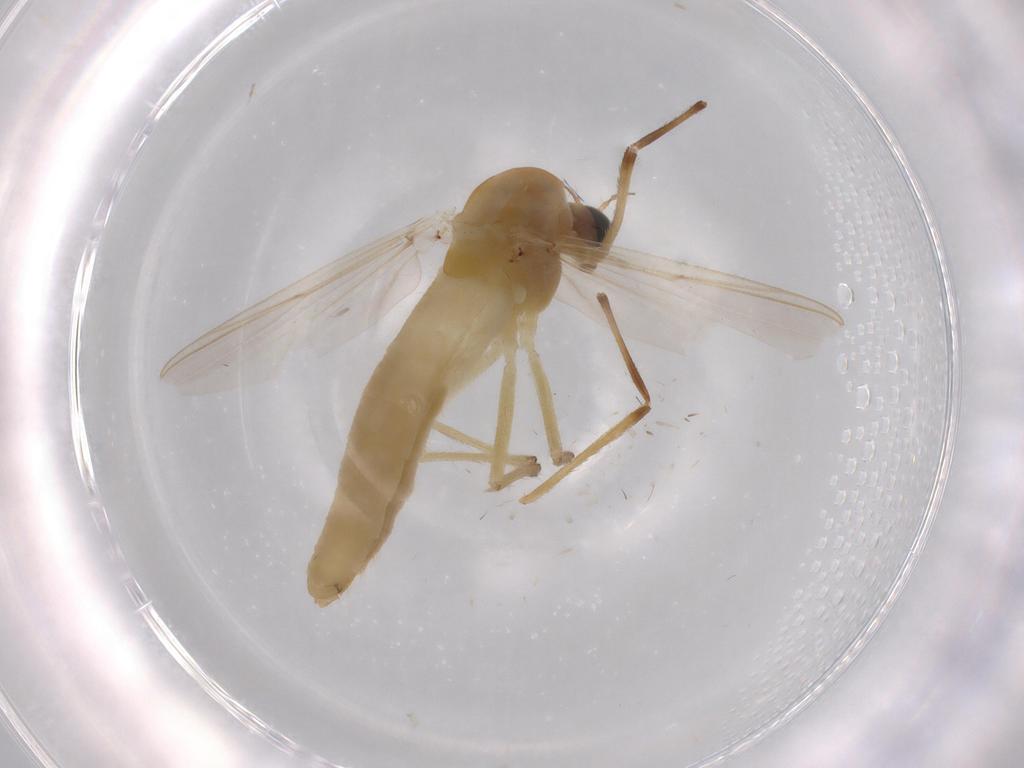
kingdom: Animalia
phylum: Arthropoda
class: Insecta
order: Diptera
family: Chironomidae
